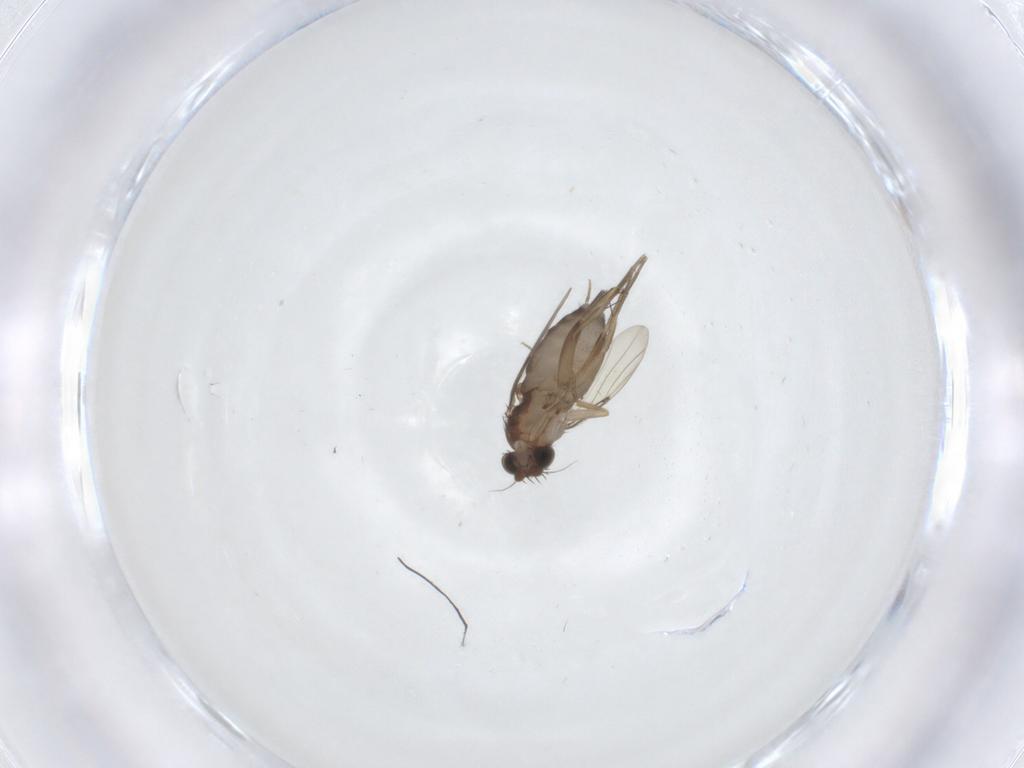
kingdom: Animalia
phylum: Arthropoda
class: Insecta
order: Diptera
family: Phoridae
